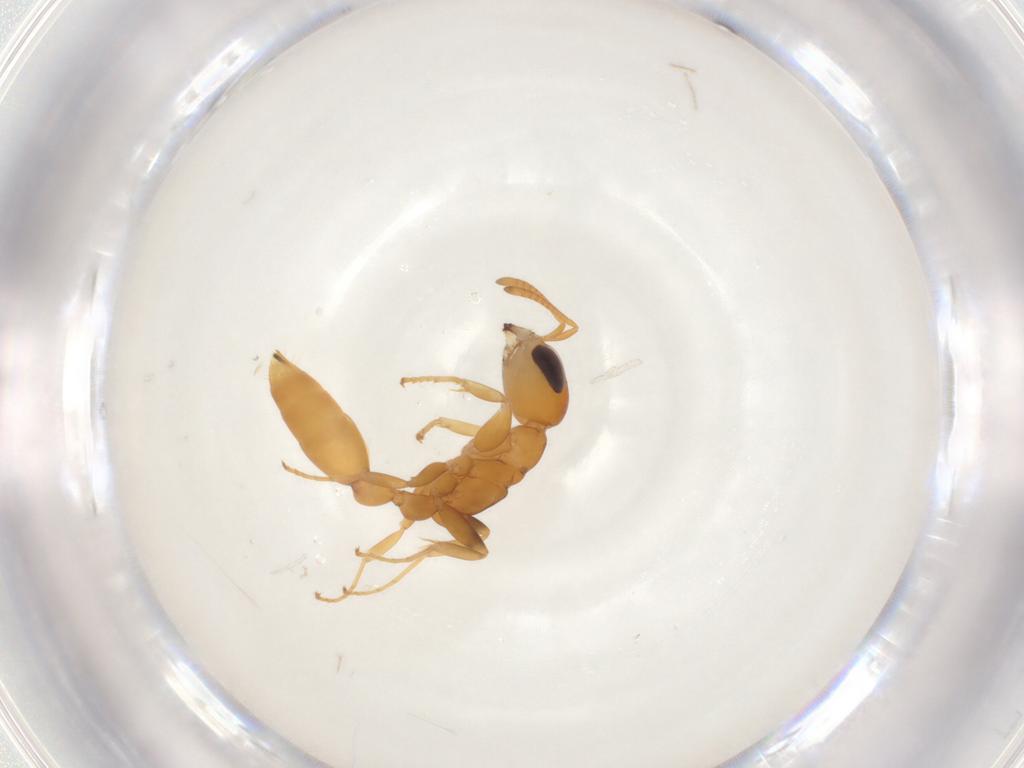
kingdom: Animalia
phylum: Arthropoda
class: Insecta
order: Hymenoptera
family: Formicidae
